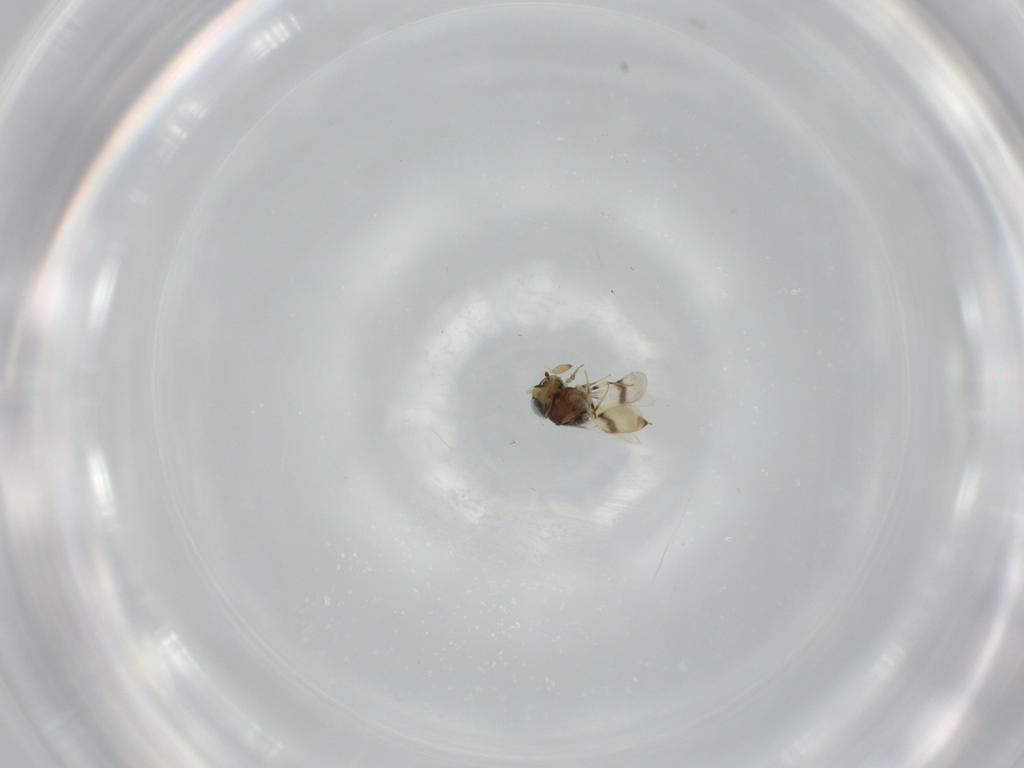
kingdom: Animalia
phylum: Arthropoda
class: Insecta
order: Hymenoptera
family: Scelionidae
